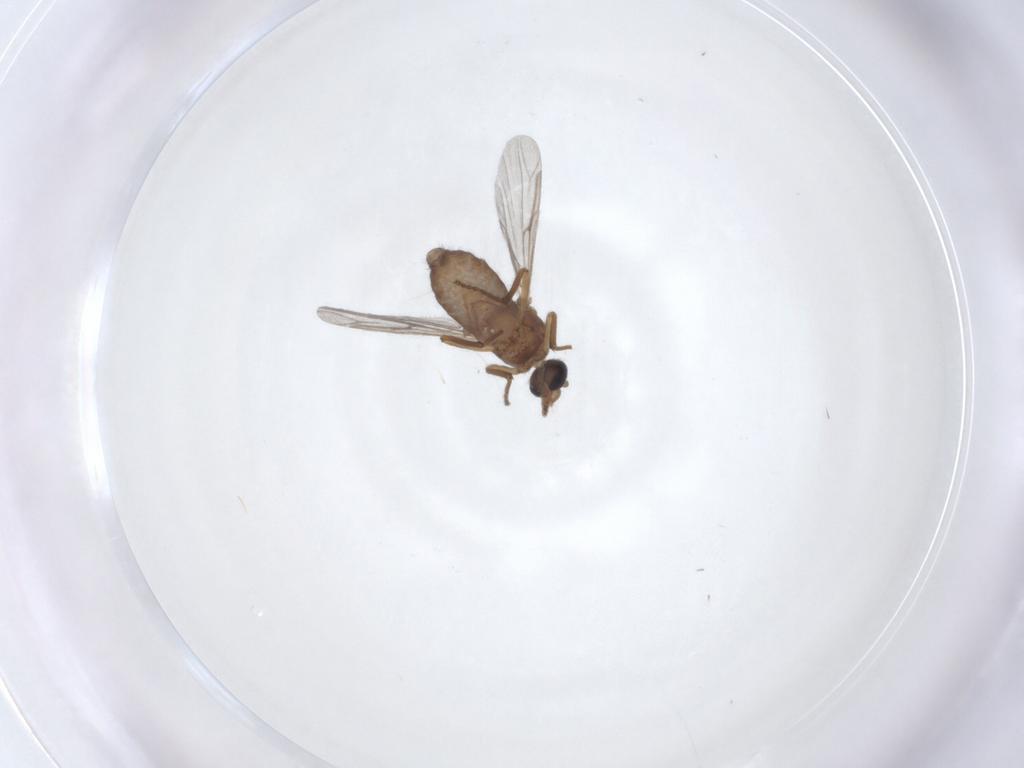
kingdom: Animalia
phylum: Arthropoda
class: Insecta
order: Diptera
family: Ceratopogonidae
